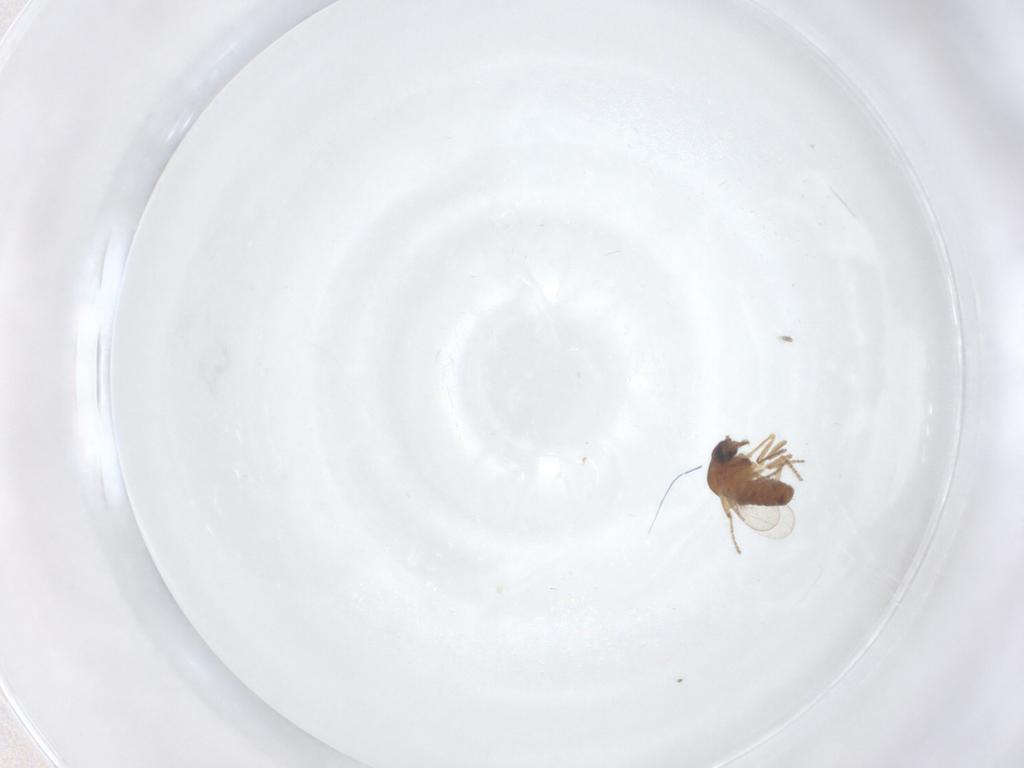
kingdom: Animalia
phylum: Arthropoda
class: Insecta
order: Diptera
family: Ceratopogonidae
